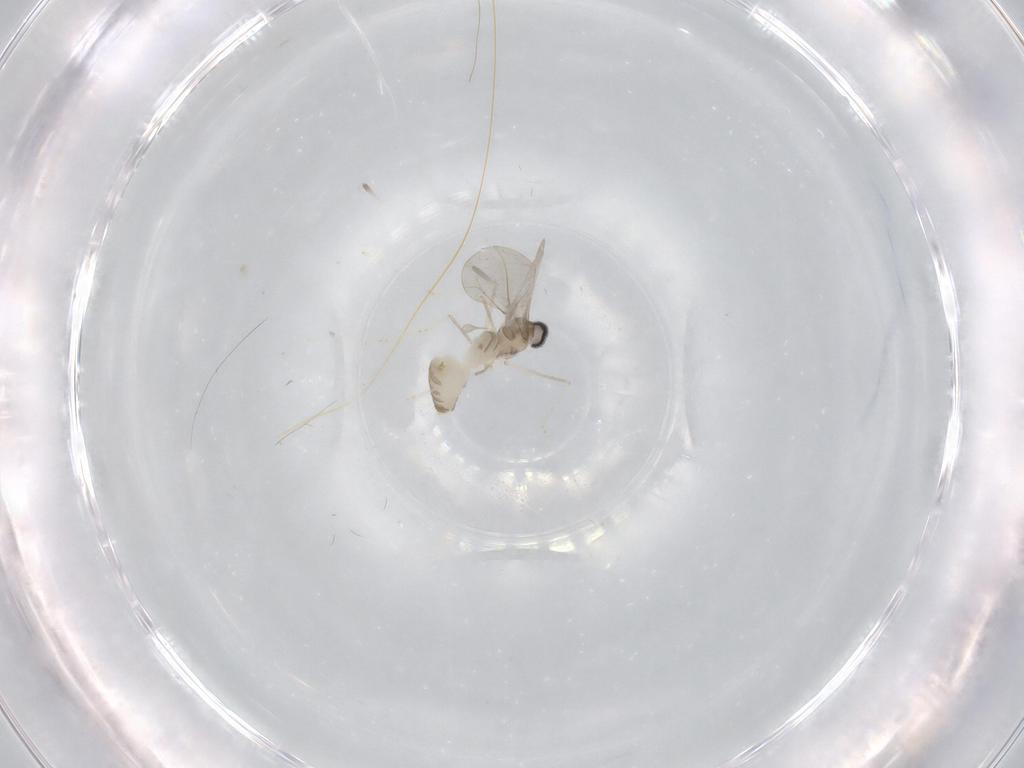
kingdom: Animalia
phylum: Arthropoda
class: Insecta
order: Diptera
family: Cecidomyiidae
